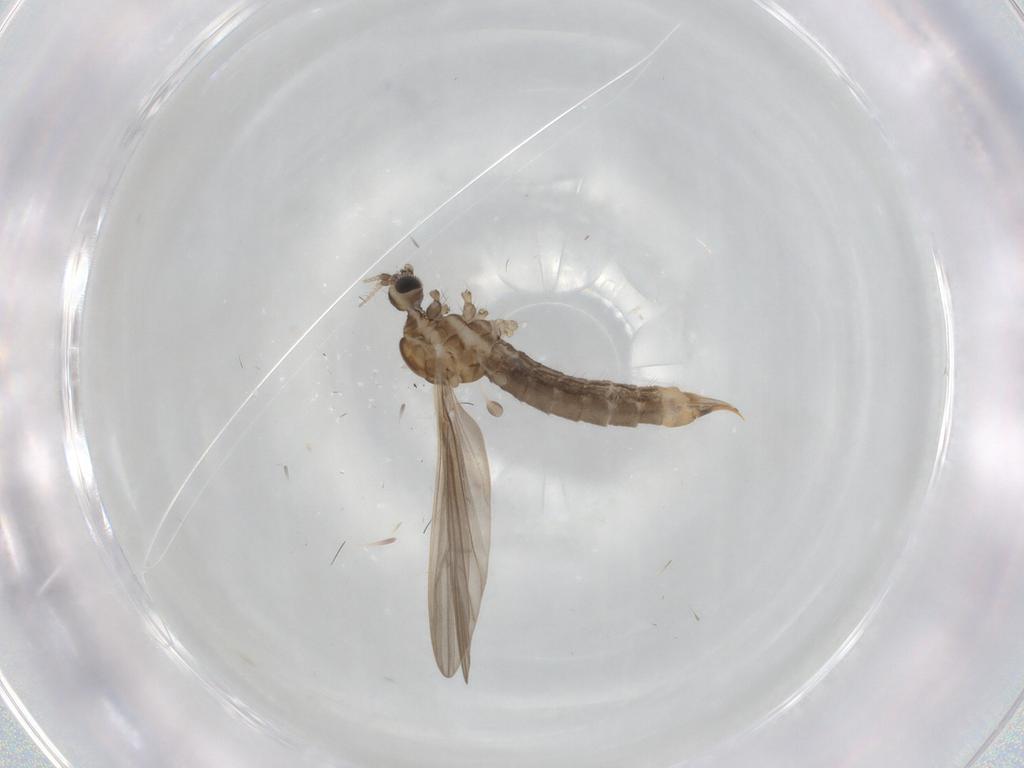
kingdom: Animalia
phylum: Arthropoda
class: Insecta
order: Diptera
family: Limoniidae
